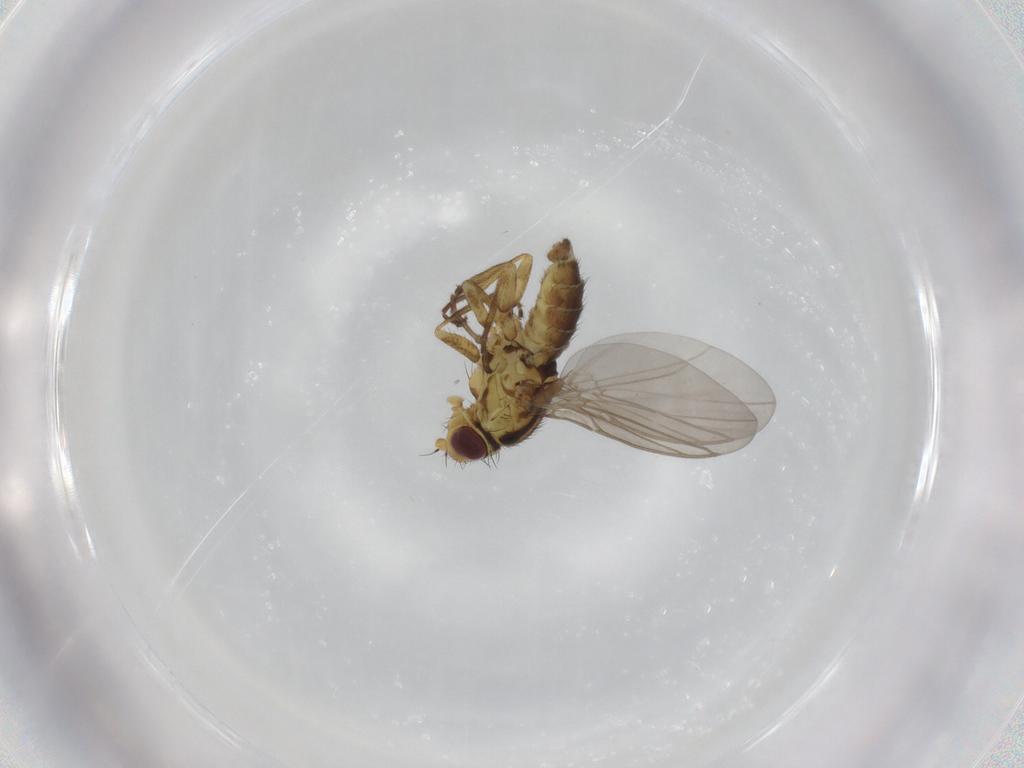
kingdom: Animalia
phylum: Arthropoda
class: Insecta
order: Diptera
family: Agromyzidae
